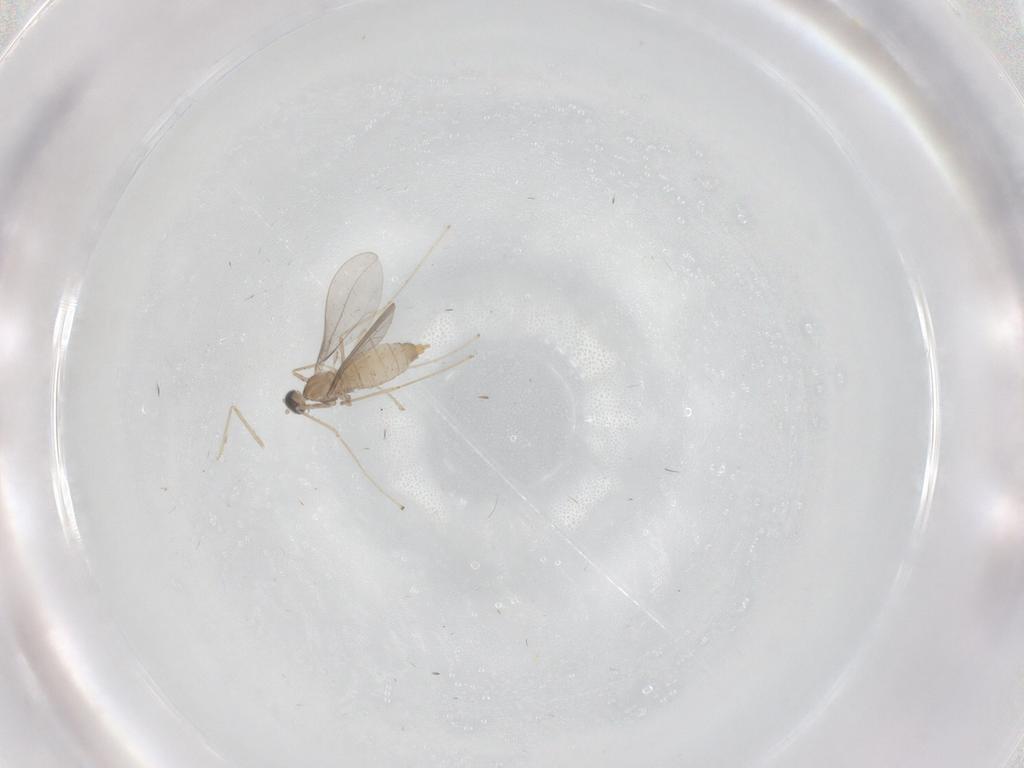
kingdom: Animalia
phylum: Arthropoda
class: Insecta
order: Diptera
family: Cecidomyiidae
